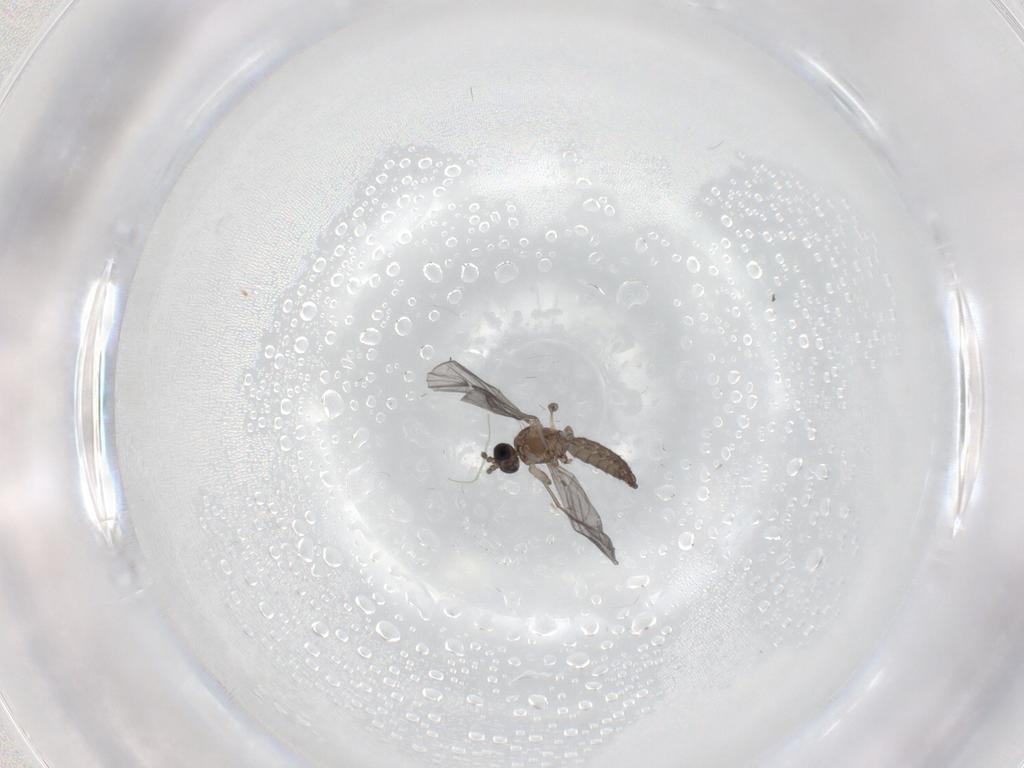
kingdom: Animalia
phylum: Arthropoda
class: Insecta
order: Diptera
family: Chironomidae
